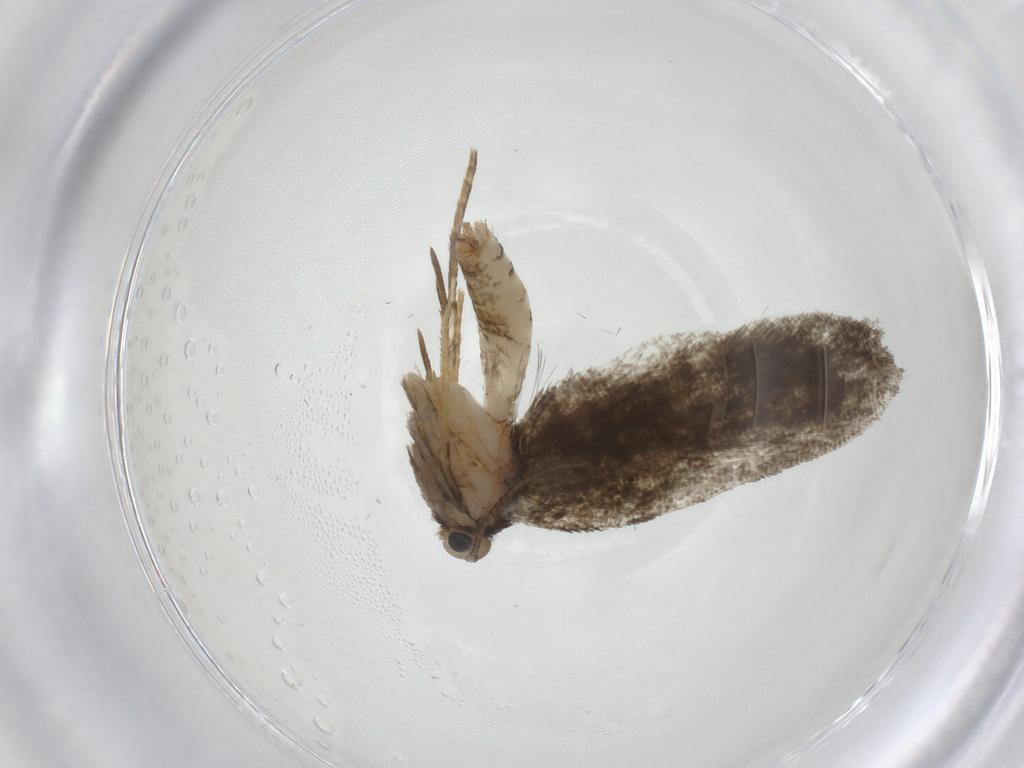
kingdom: Animalia
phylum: Arthropoda
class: Insecta
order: Lepidoptera
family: Psychidae
